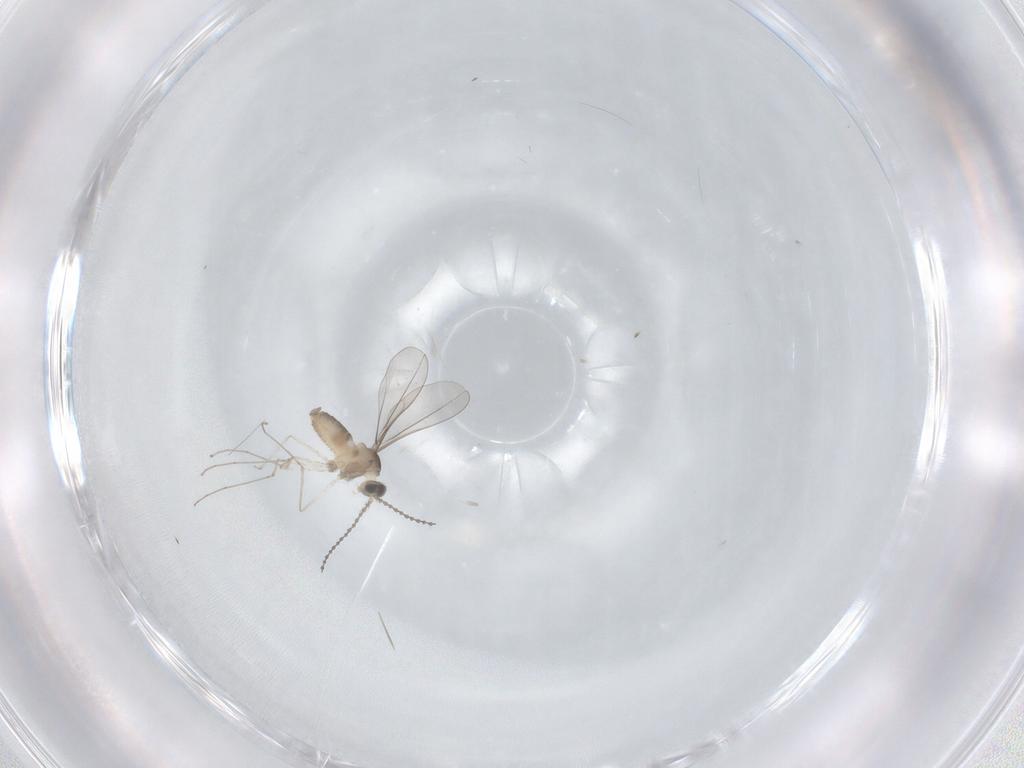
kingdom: Animalia
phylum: Arthropoda
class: Insecta
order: Diptera
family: Cecidomyiidae
